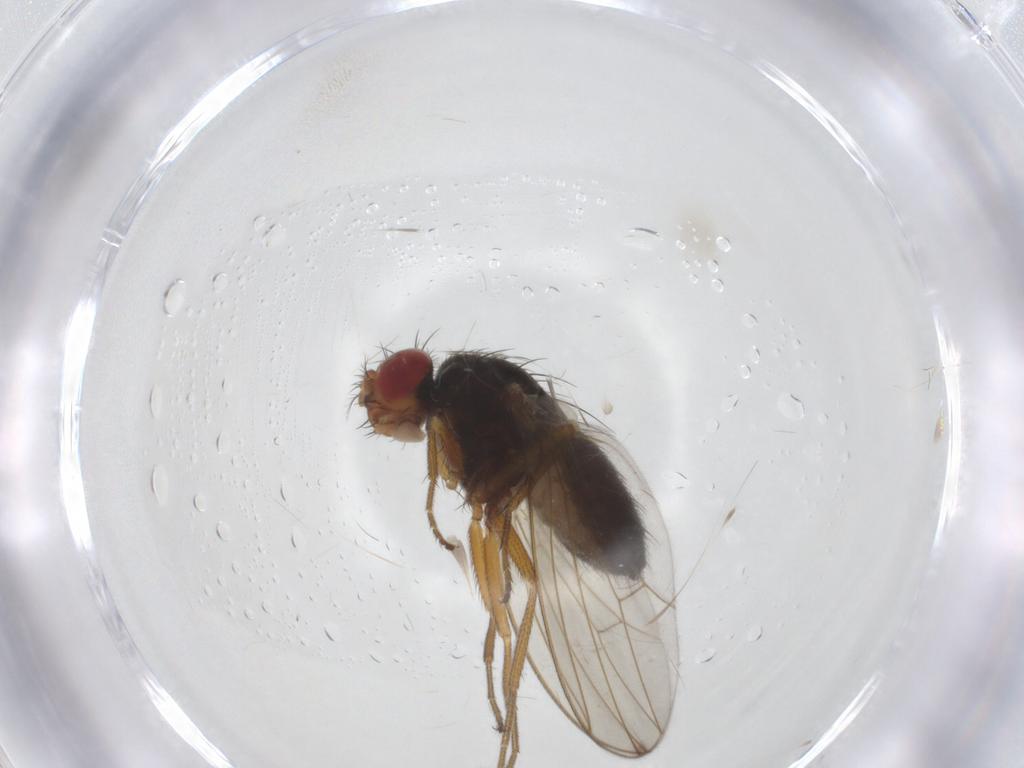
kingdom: Animalia
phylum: Arthropoda
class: Insecta
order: Diptera
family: Drosophilidae
